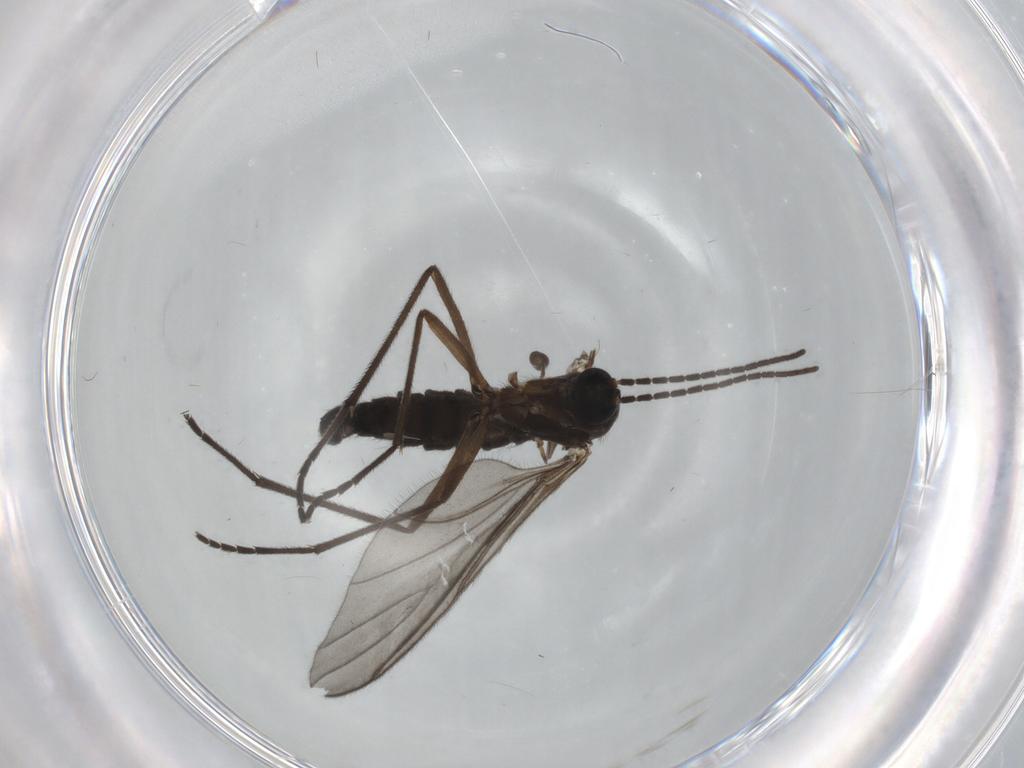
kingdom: Animalia
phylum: Arthropoda
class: Insecta
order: Diptera
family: Sciaridae
